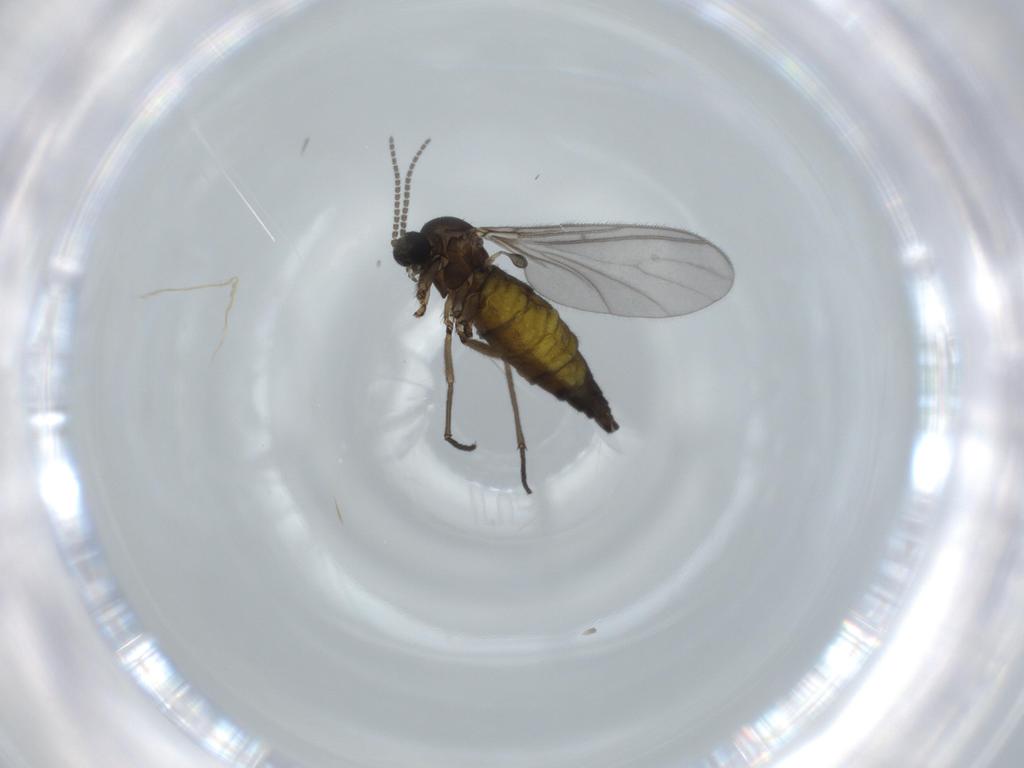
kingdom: Animalia
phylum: Arthropoda
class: Insecta
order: Diptera
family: Sciaridae
